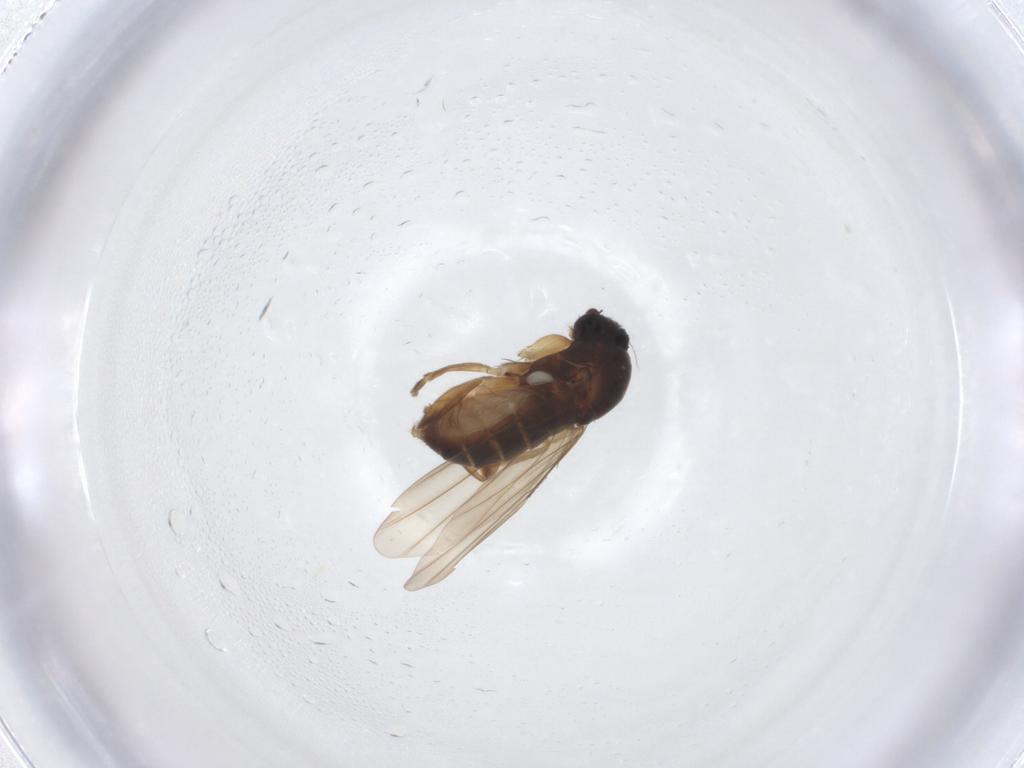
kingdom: Animalia
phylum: Arthropoda
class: Insecta
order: Diptera
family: Phoridae
